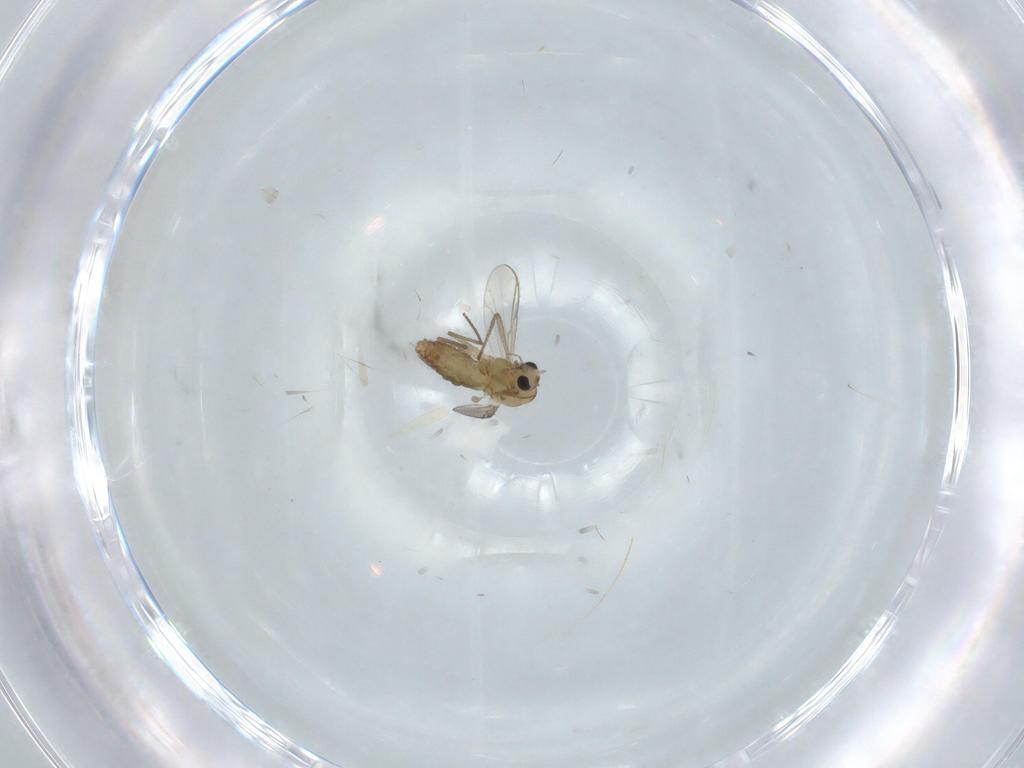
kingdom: Animalia
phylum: Arthropoda
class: Insecta
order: Diptera
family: Chironomidae
